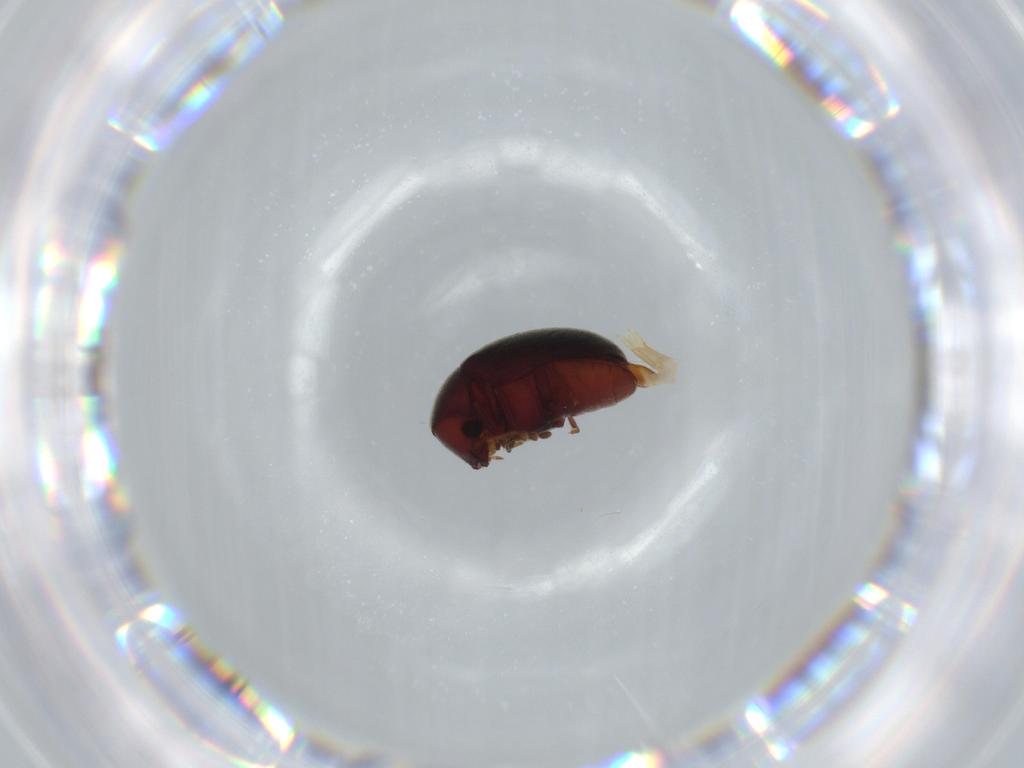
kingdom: Animalia
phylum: Arthropoda
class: Insecta
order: Coleoptera
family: Ptinidae
